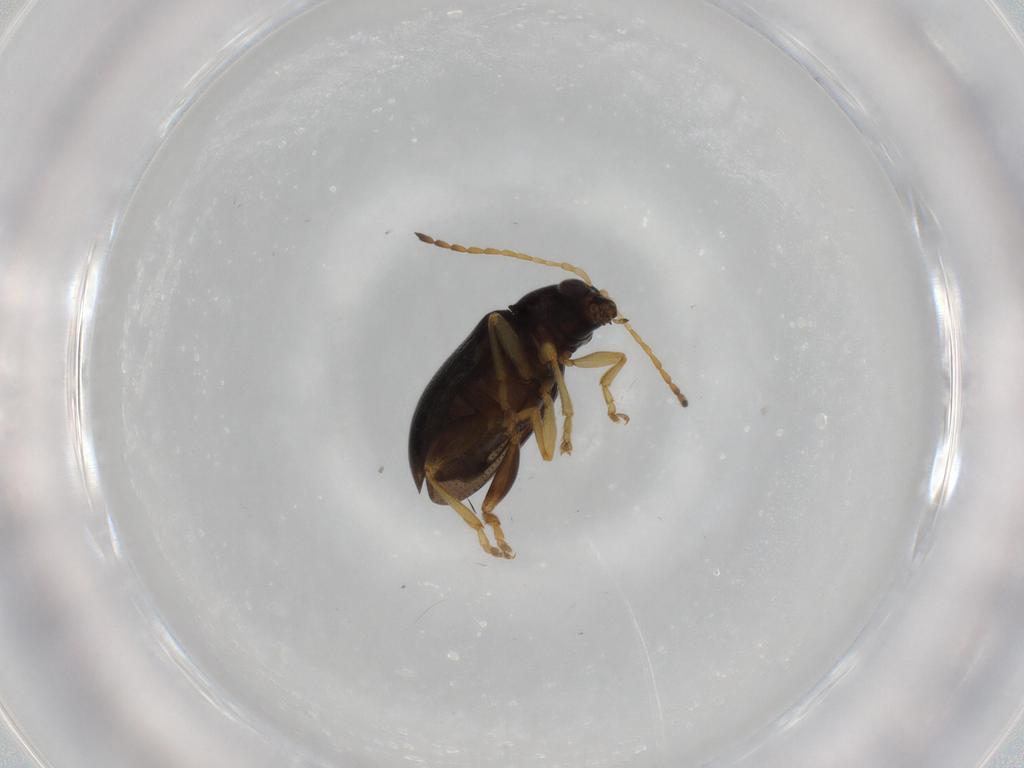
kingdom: Animalia
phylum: Arthropoda
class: Insecta
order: Coleoptera
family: Chrysomelidae
